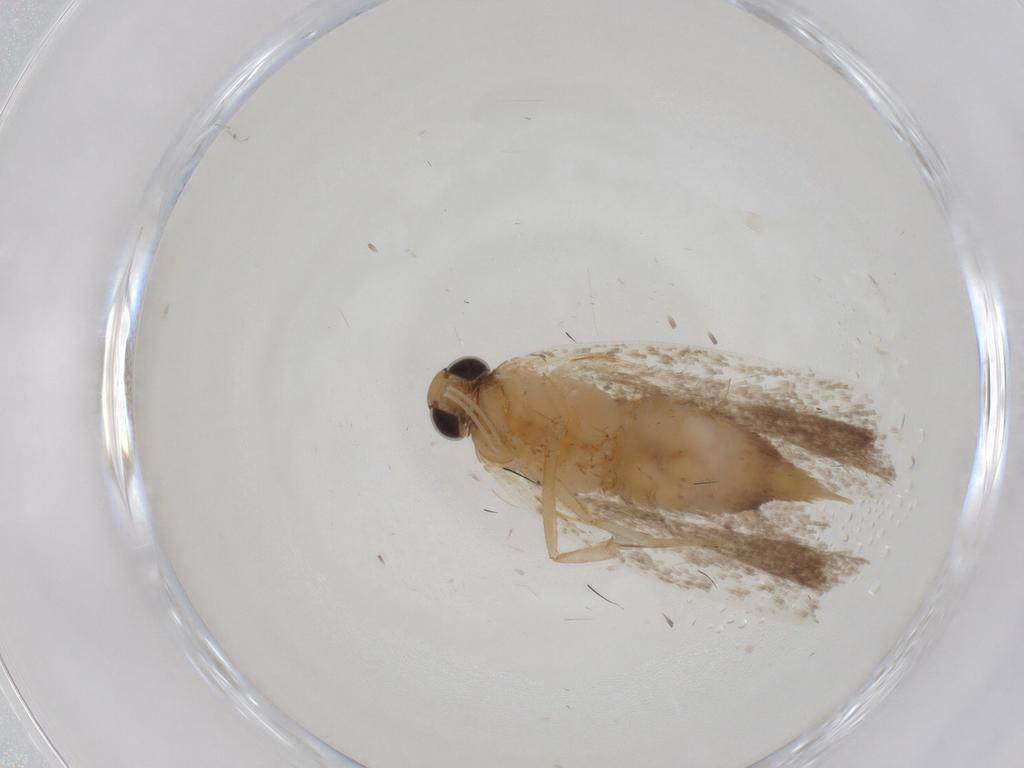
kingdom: Animalia
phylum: Arthropoda
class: Insecta
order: Lepidoptera
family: Gelechiidae
